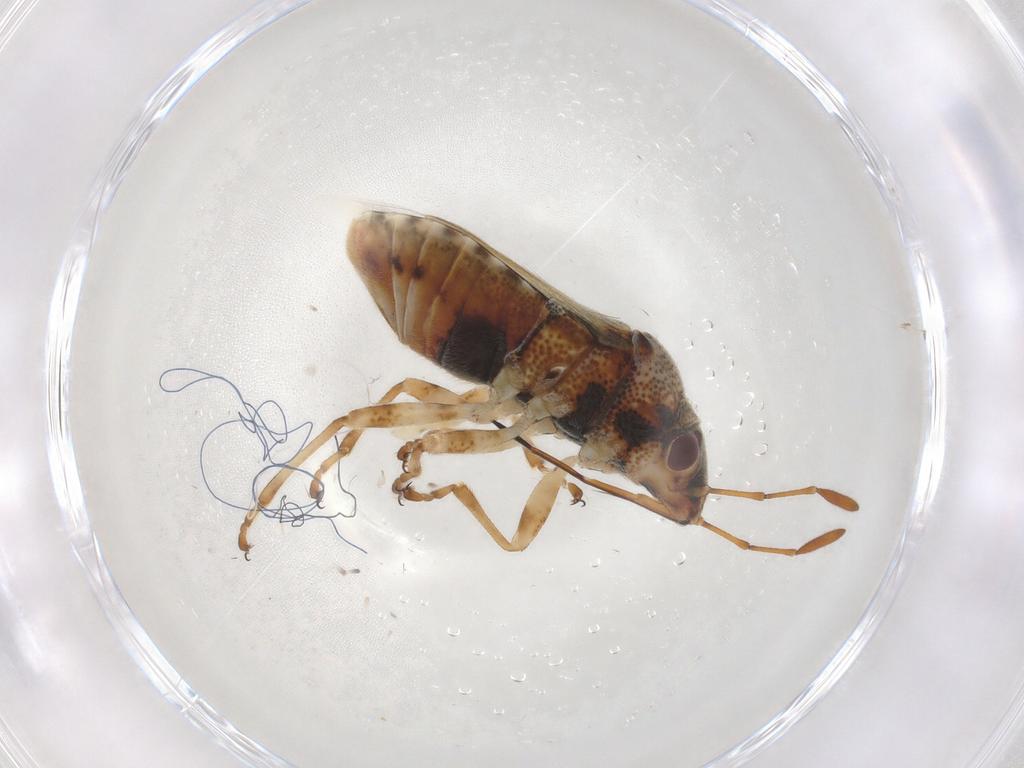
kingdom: Animalia
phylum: Arthropoda
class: Insecta
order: Hemiptera
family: Lygaeidae
